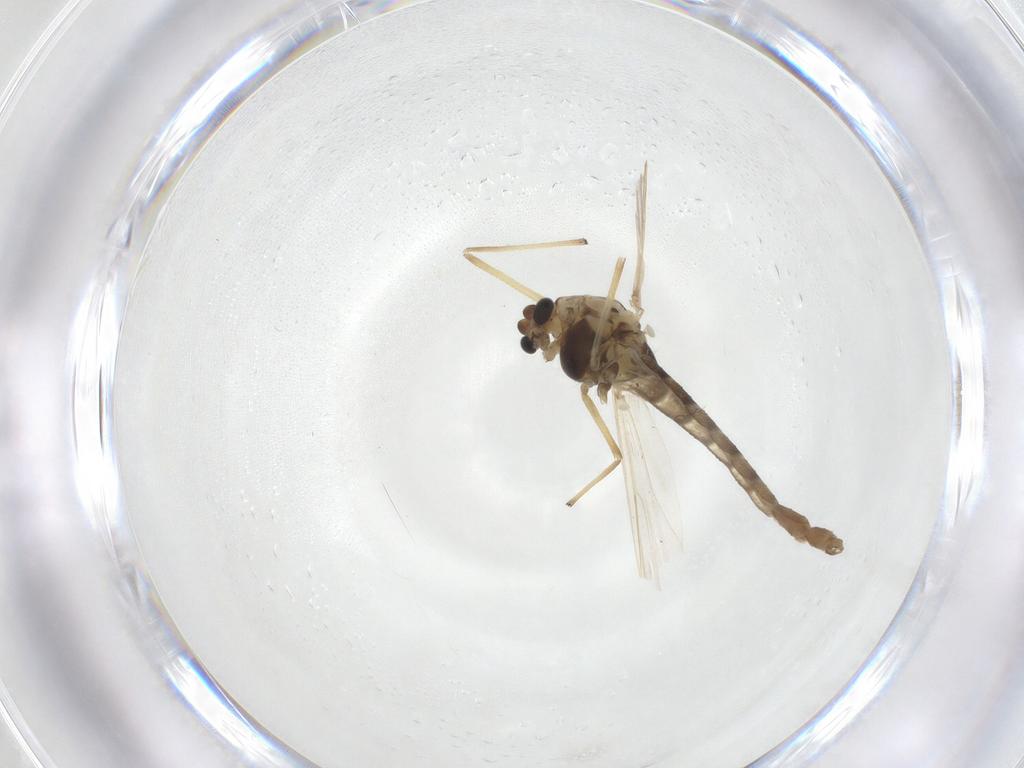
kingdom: Animalia
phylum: Arthropoda
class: Insecta
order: Diptera
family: Chironomidae
